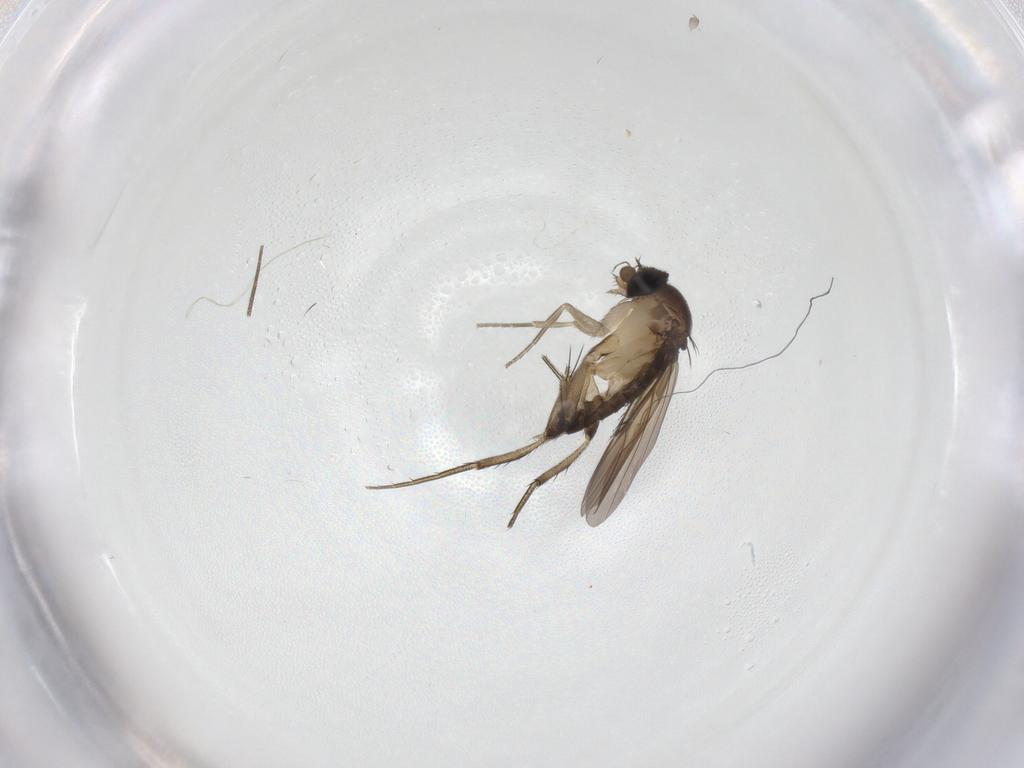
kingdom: Animalia
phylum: Arthropoda
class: Insecta
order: Diptera
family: Phoridae
